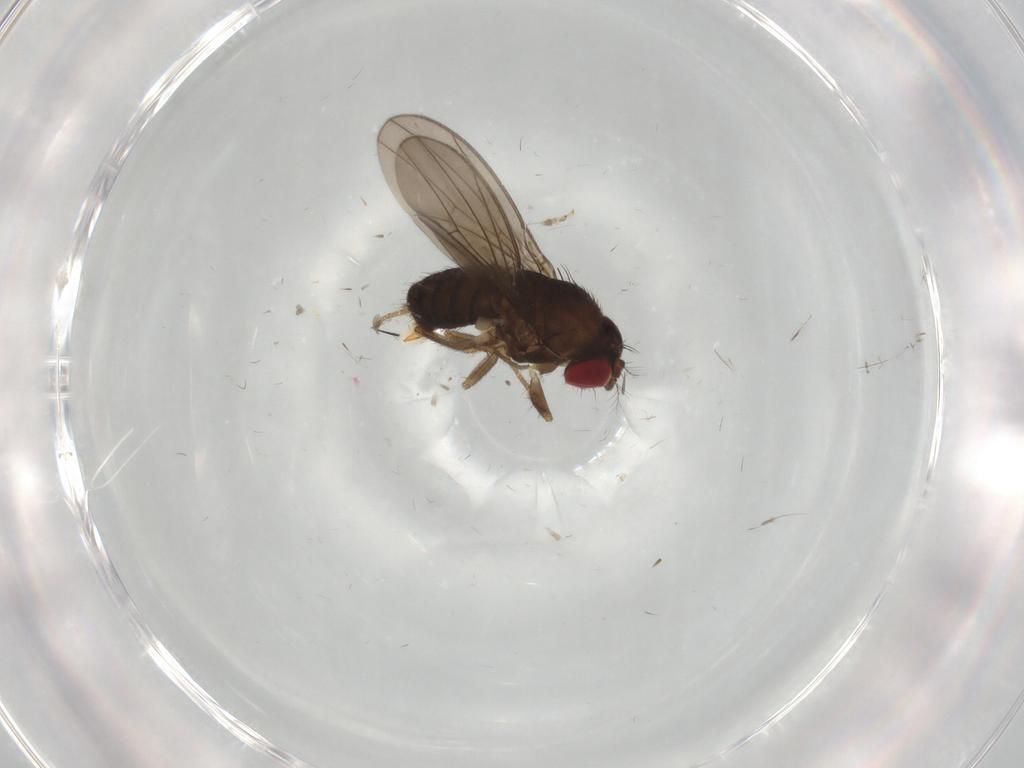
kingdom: Animalia
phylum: Arthropoda
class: Insecta
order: Diptera
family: Drosophilidae
